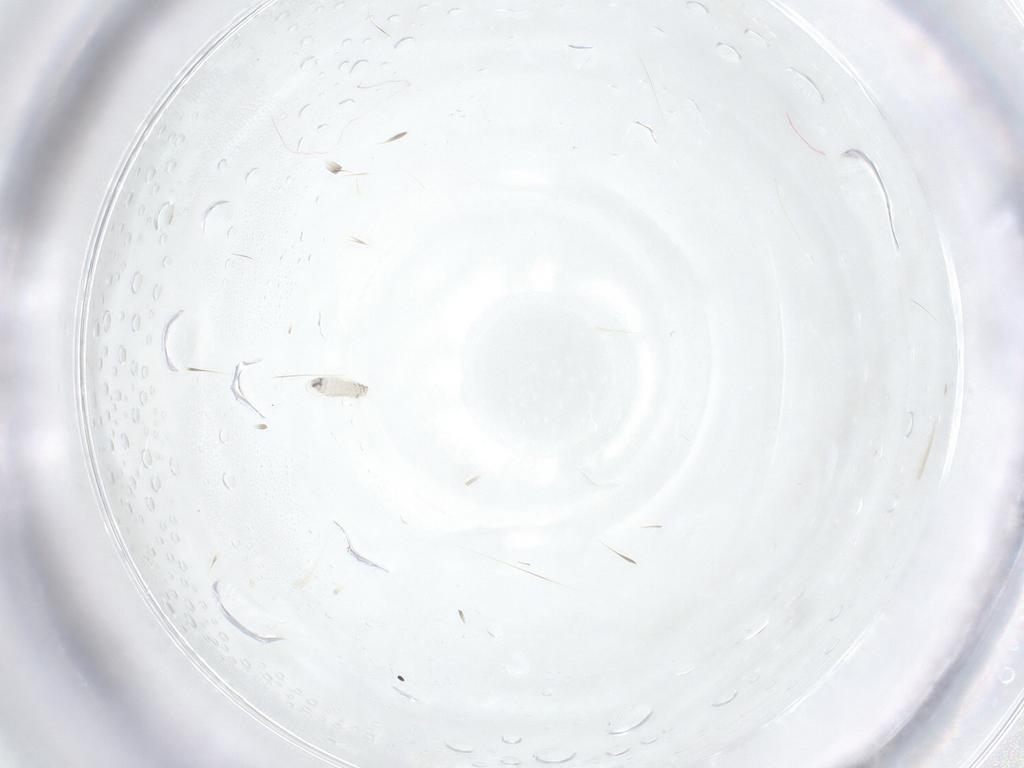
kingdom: Animalia
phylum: Arthropoda
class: Insecta
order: Diptera
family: Tachinidae
